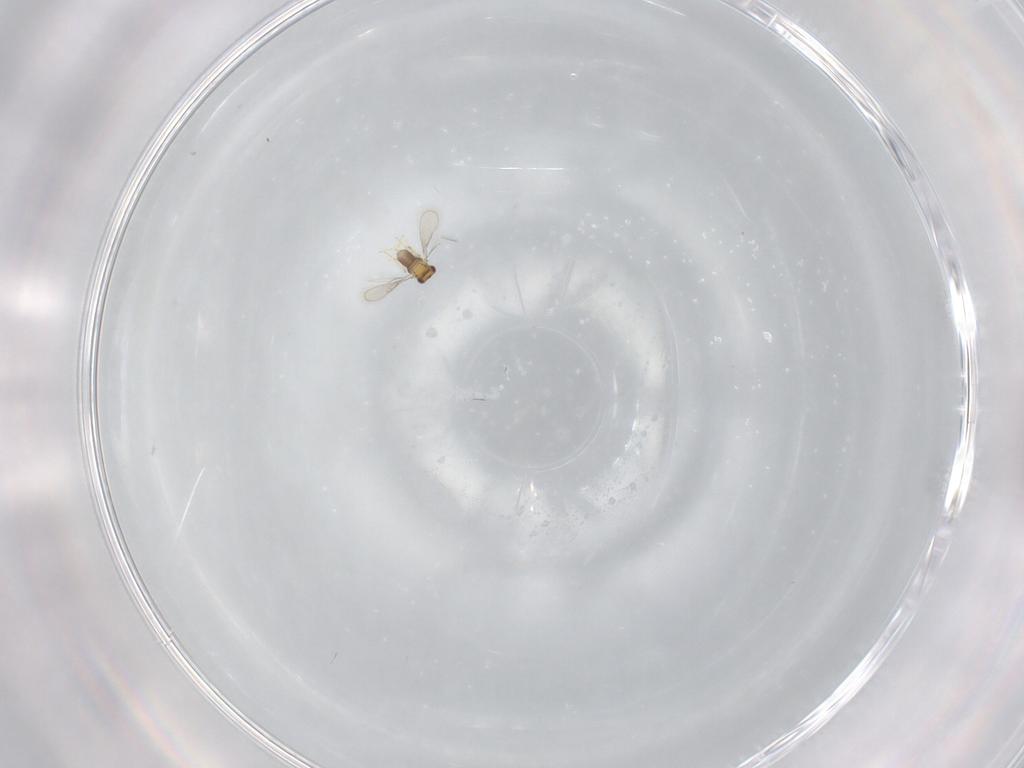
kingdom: Animalia
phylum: Arthropoda
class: Insecta
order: Hymenoptera
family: Aphelinidae
